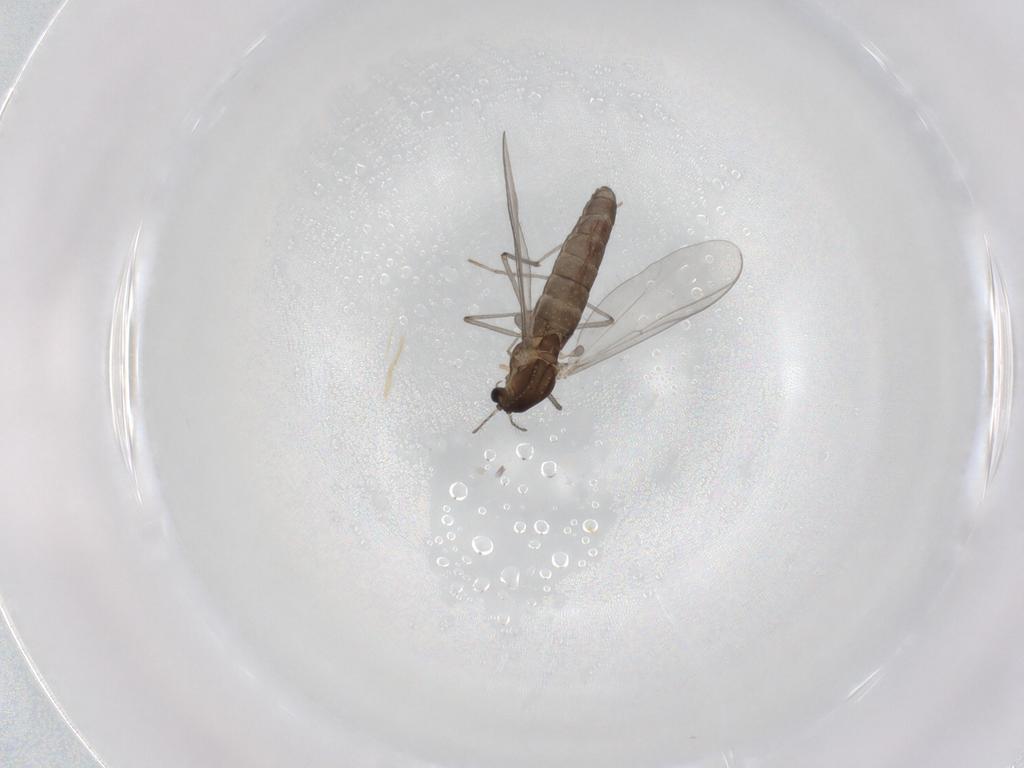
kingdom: Animalia
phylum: Arthropoda
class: Insecta
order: Diptera
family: Chironomidae
